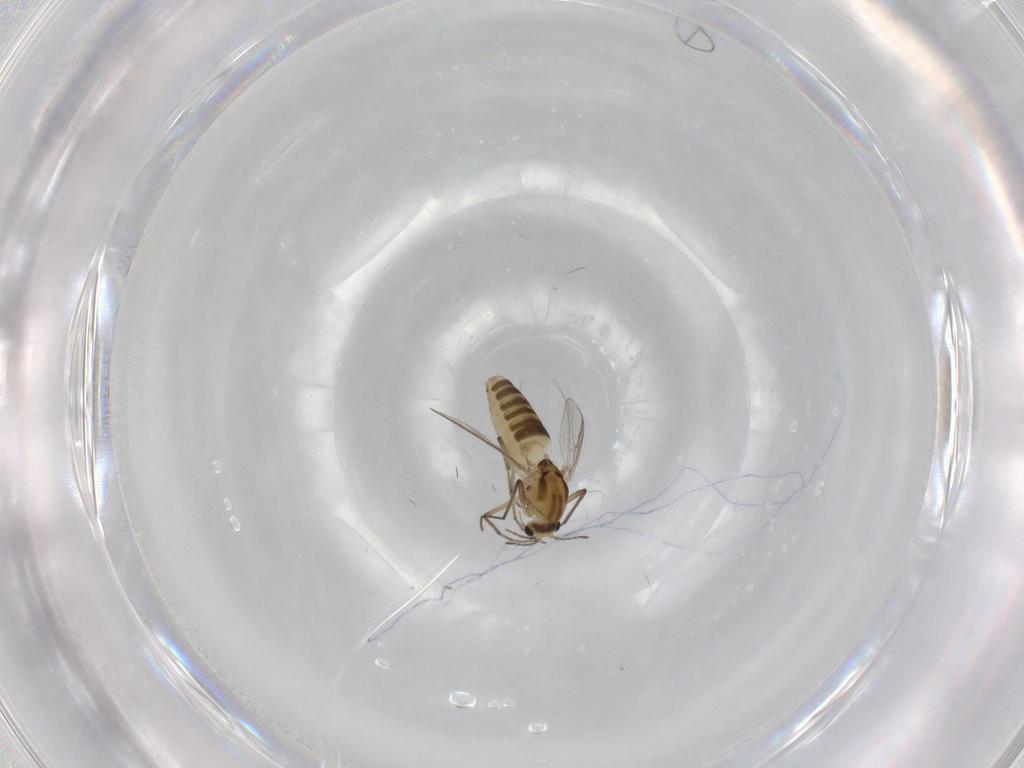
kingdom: Animalia
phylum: Arthropoda
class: Insecta
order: Diptera
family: Chironomidae
